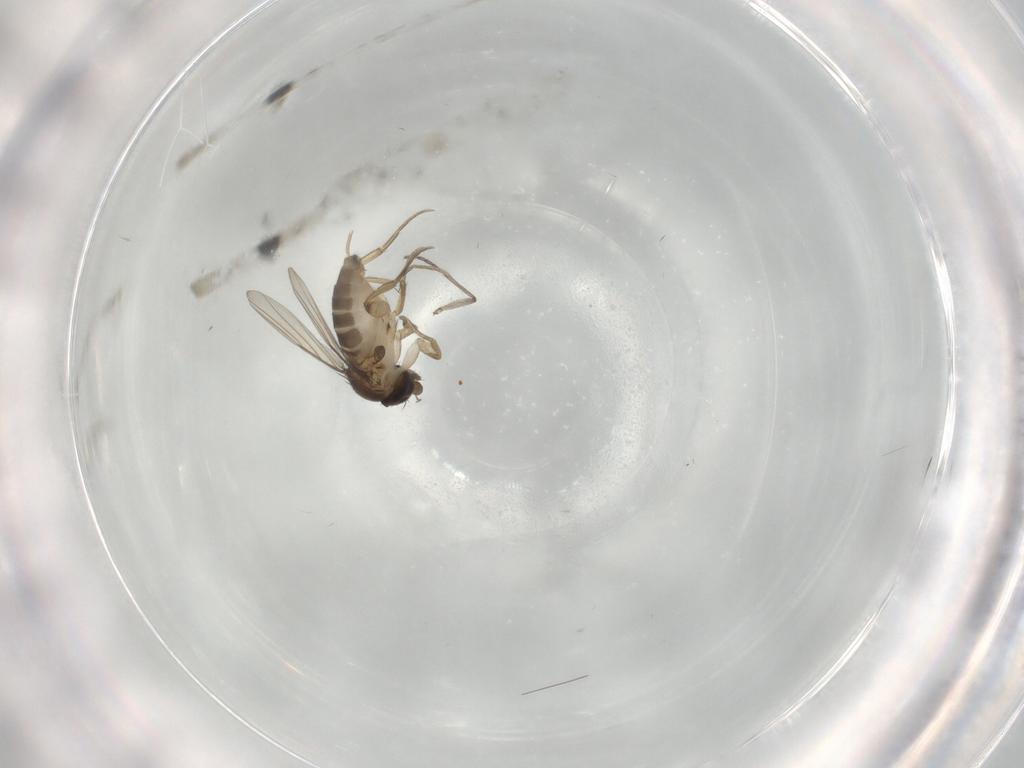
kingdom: Animalia
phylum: Arthropoda
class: Insecta
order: Diptera
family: Phoridae
